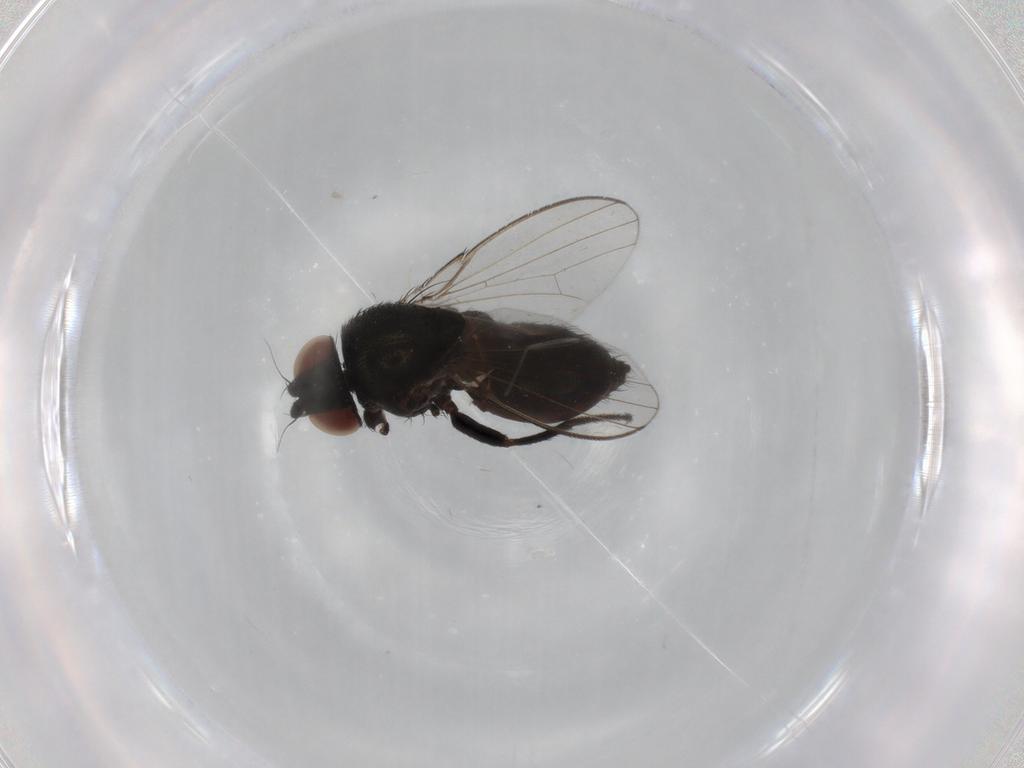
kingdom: Animalia
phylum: Arthropoda
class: Insecta
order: Diptera
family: Milichiidae
